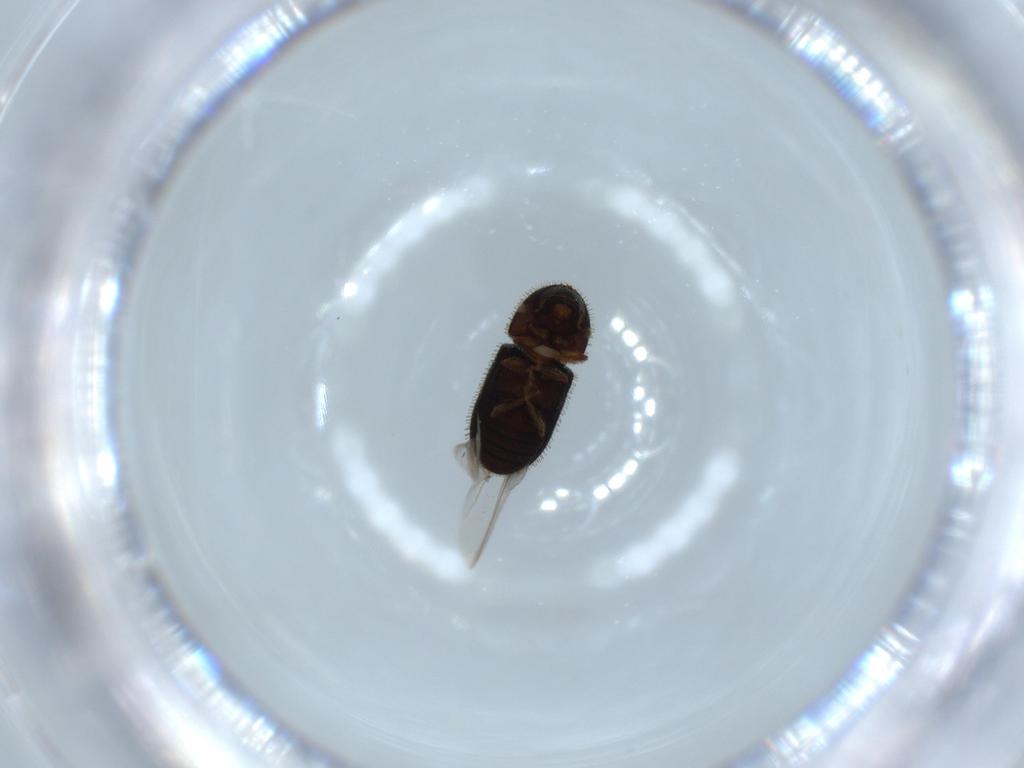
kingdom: Animalia
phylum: Arthropoda
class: Insecta
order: Coleoptera
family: Curculionidae
